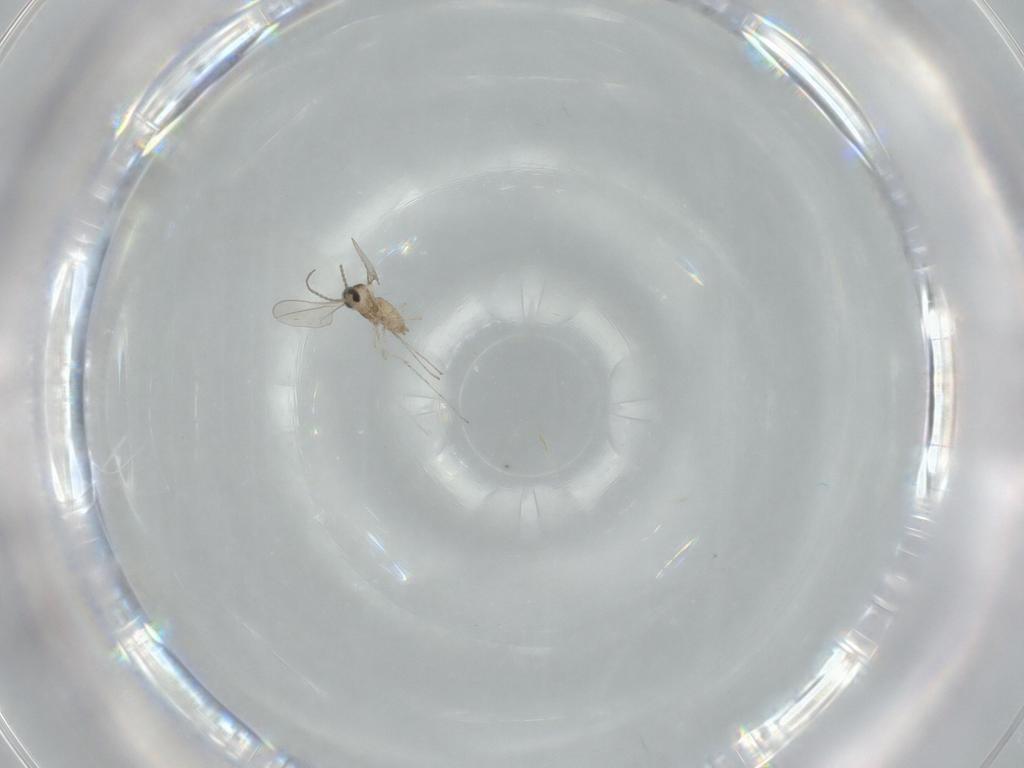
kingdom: Animalia
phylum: Arthropoda
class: Insecta
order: Diptera
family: Cecidomyiidae
